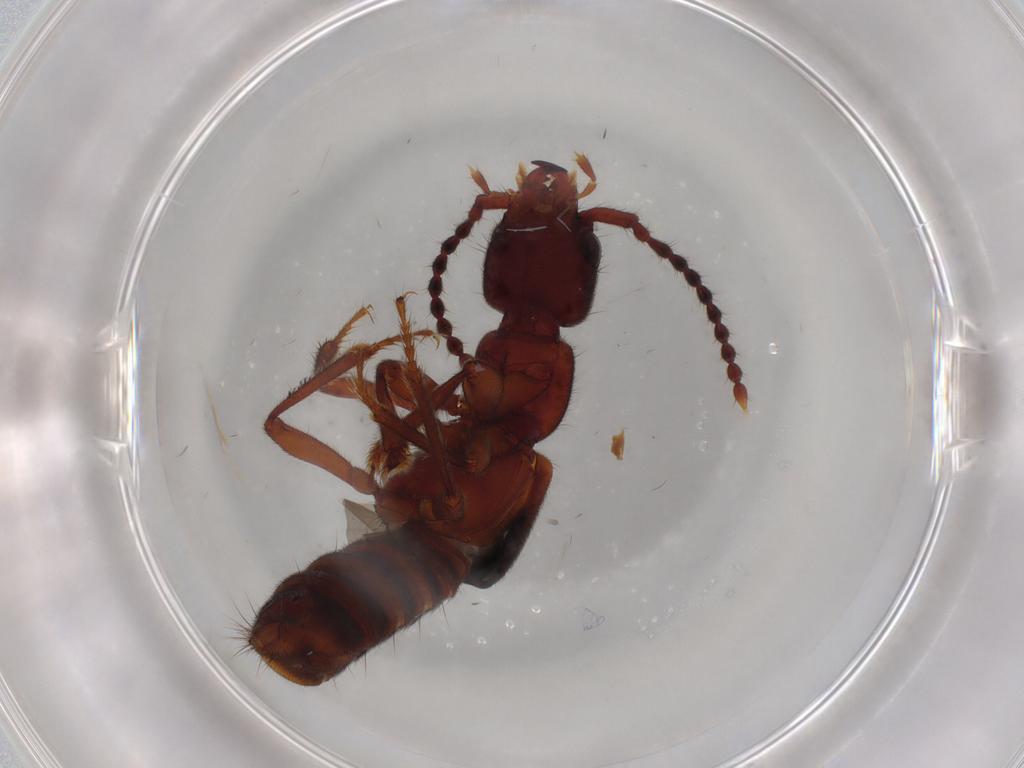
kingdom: Animalia
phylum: Arthropoda
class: Insecta
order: Coleoptera
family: Staphylinidae
